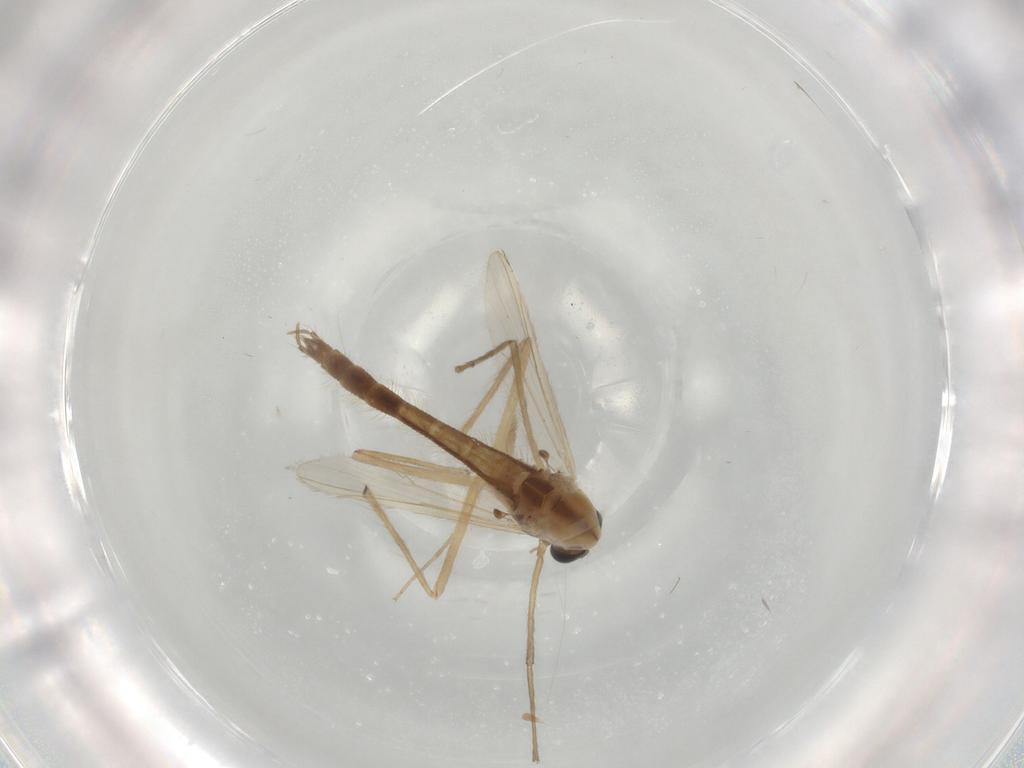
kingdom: Animalia
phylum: Arthropoda
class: Insecta
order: Diptera
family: Chironomidae
